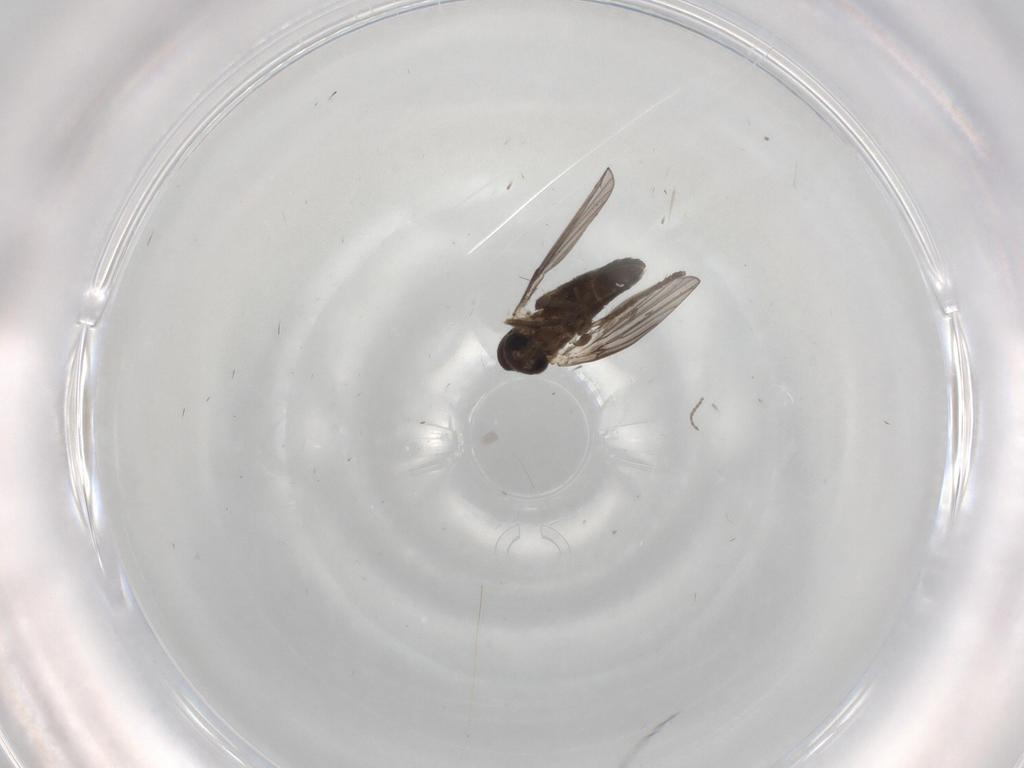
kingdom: Animalia
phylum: Arthropoda
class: Insecta
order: Diptera
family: Cecidomyiidae
